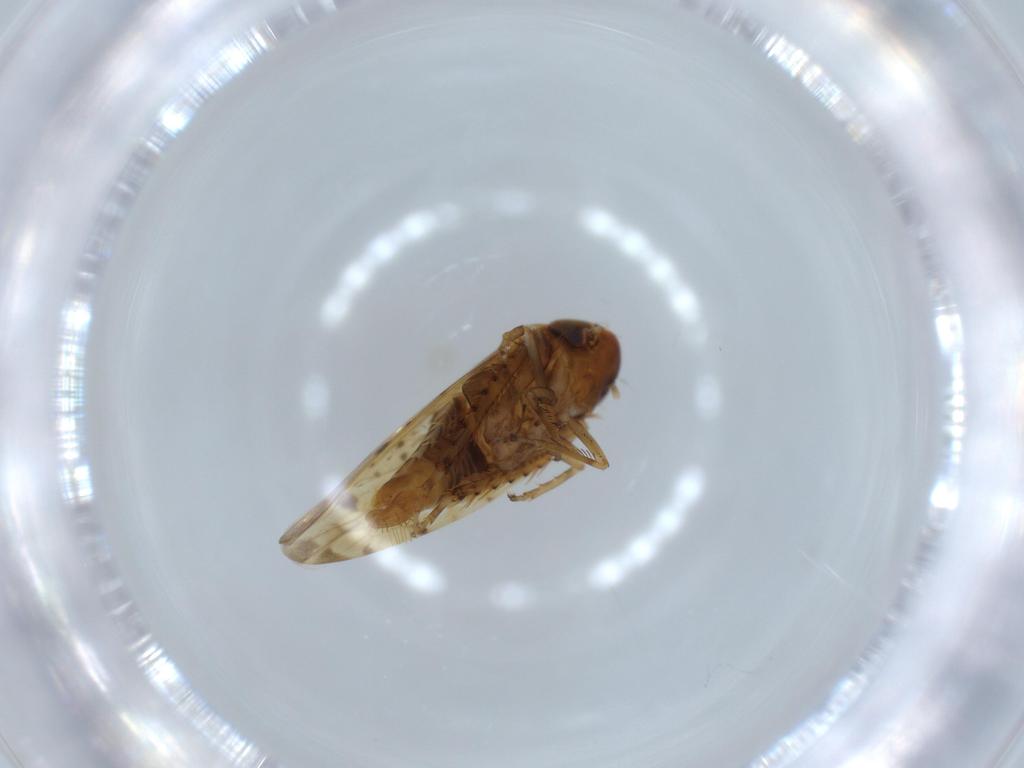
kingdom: Animalia
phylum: Arthropoda
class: Insecta
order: Hemiptera
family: Cicadellidae
